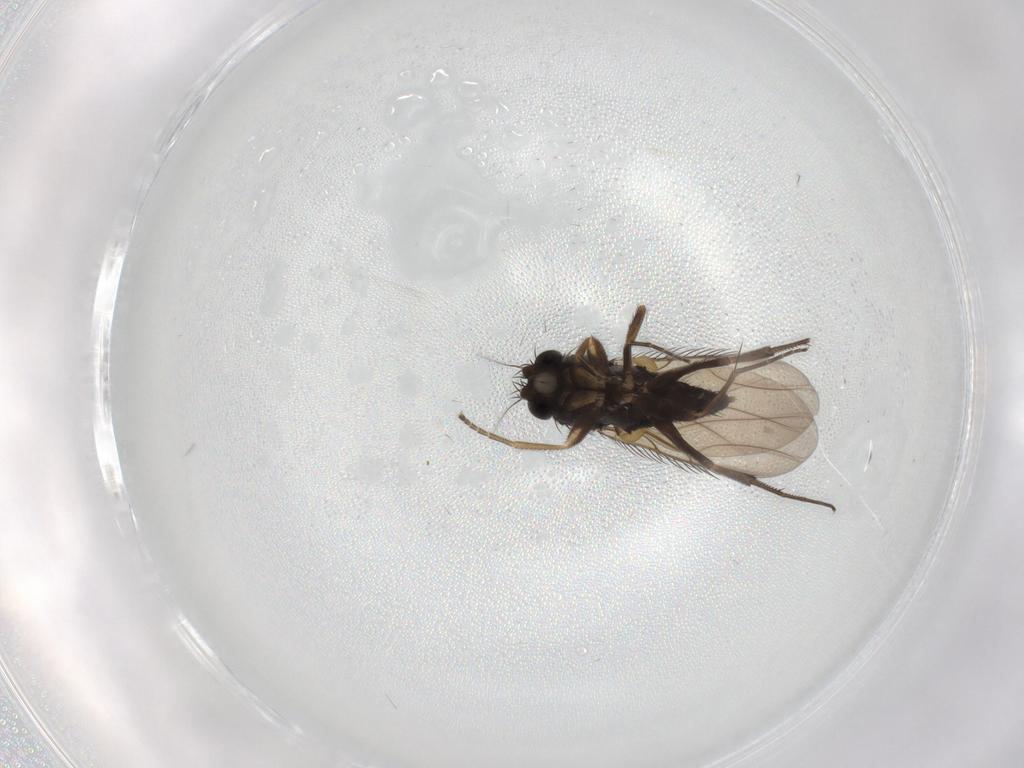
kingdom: Animalia
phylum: Arthropoda
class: Insecta
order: Diptera
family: Phoridae
